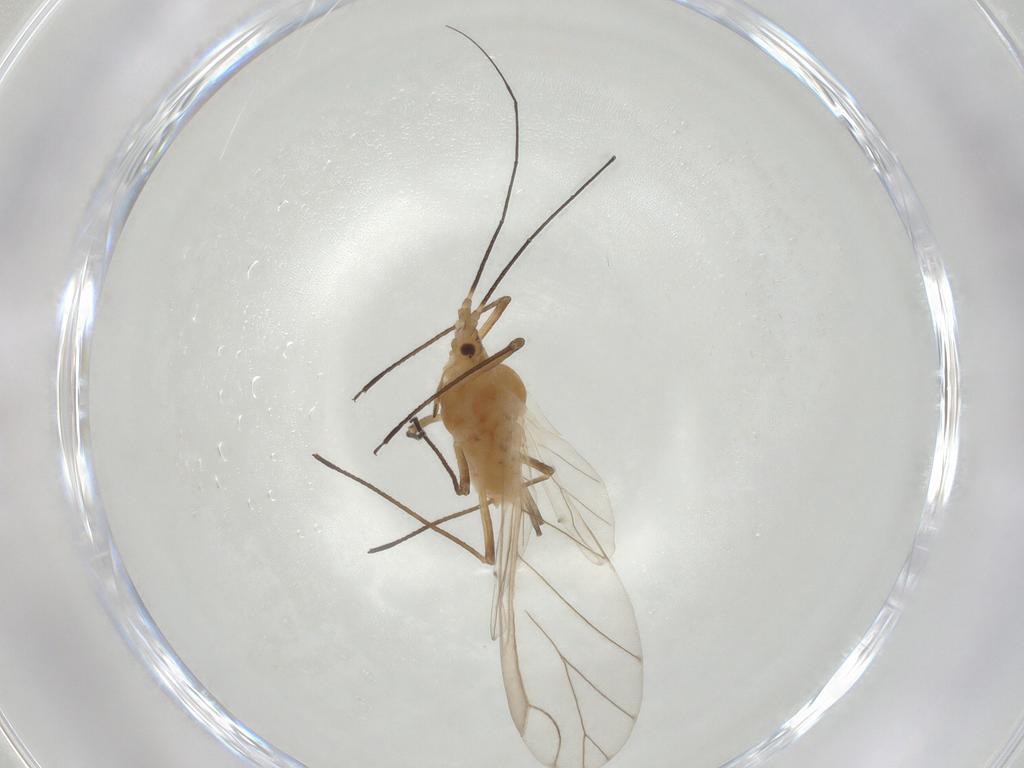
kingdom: Animalia
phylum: Arthropoda
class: Insecta
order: Hemiptera
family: Aphididae
